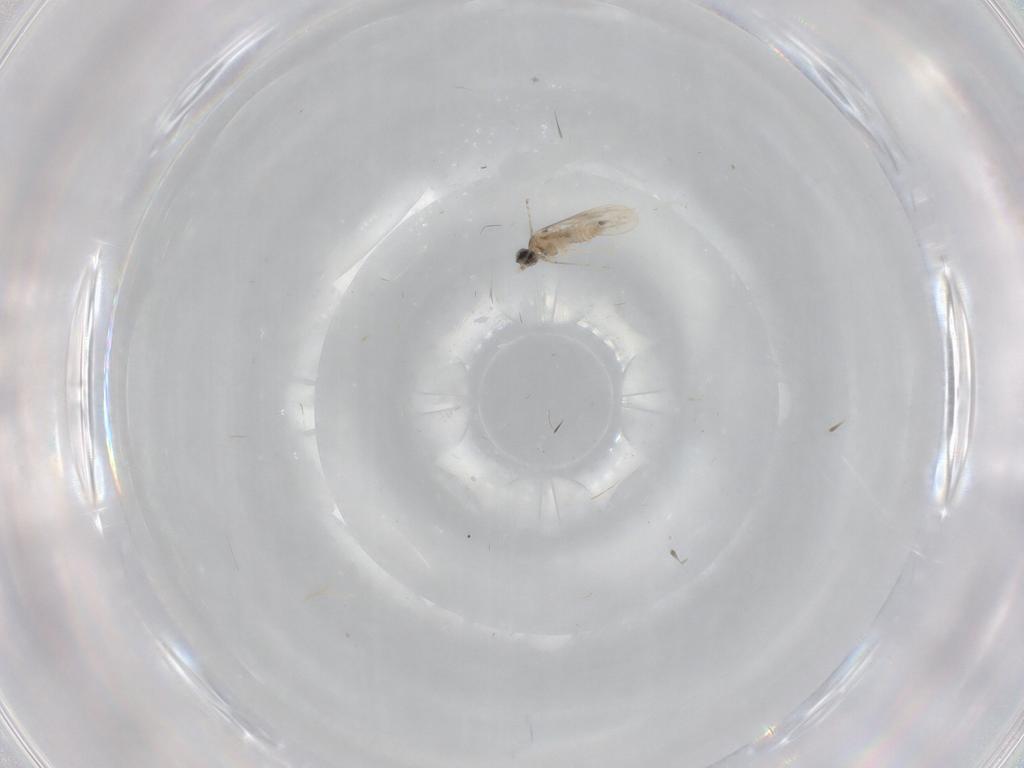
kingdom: Animalia
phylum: Arthropoda
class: Insecta
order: Diptera
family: Cecidomyiidae
